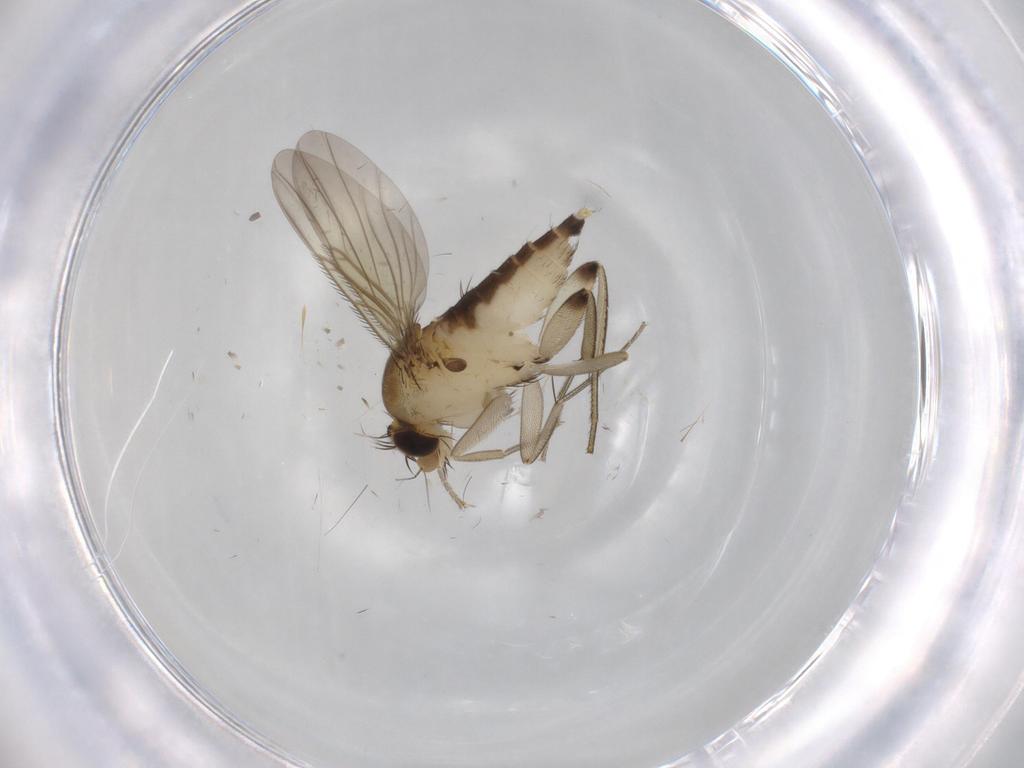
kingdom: Animalia
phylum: Arthropoda
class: Insecta
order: Diptera
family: Phoridae
